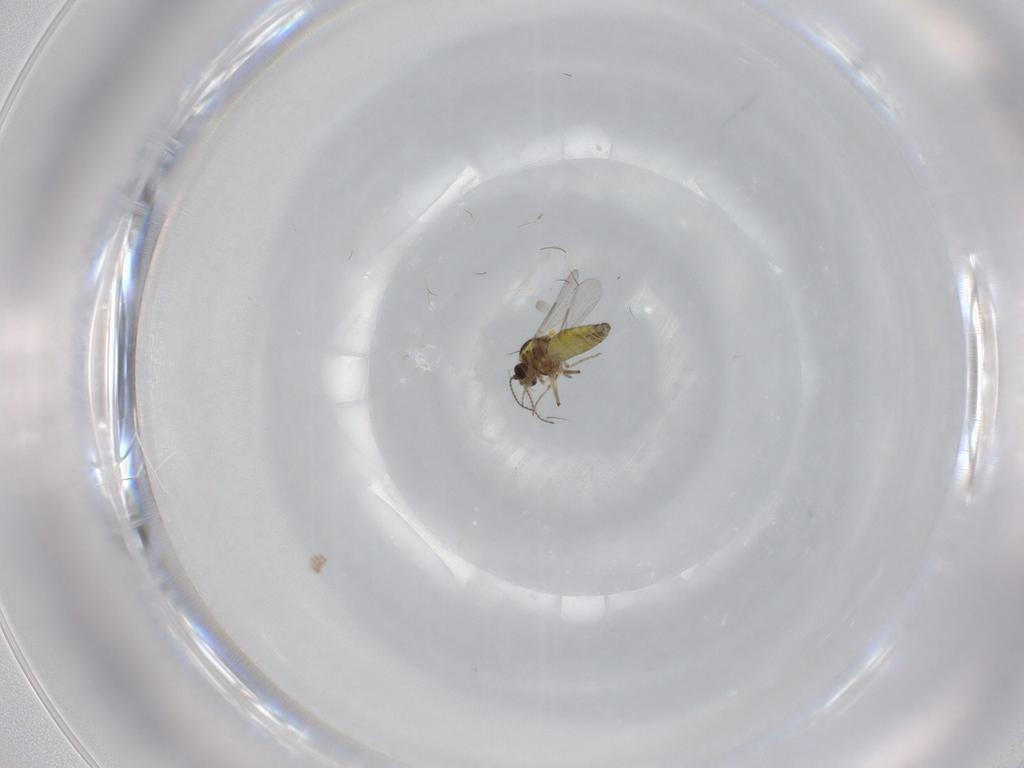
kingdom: Animalia
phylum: Arthropoda
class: Insecta
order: Diptera
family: Ceratopogonidae
